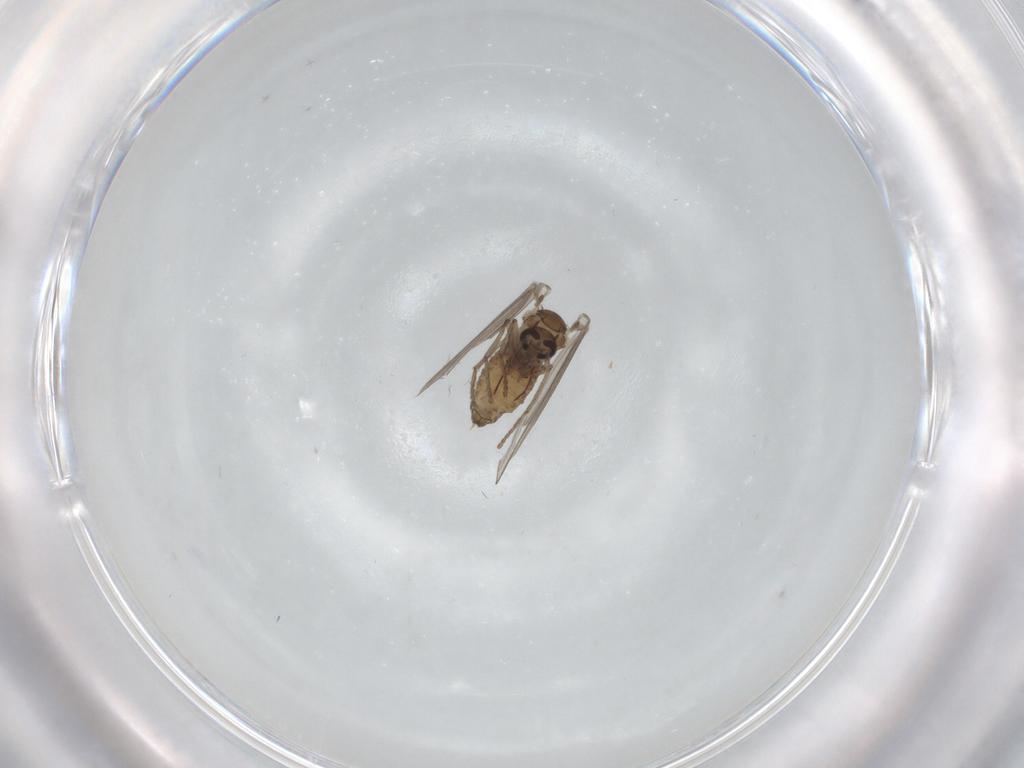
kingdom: Animalia
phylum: Arthropoda
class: Insecta
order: Diptera
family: Psychodidae
